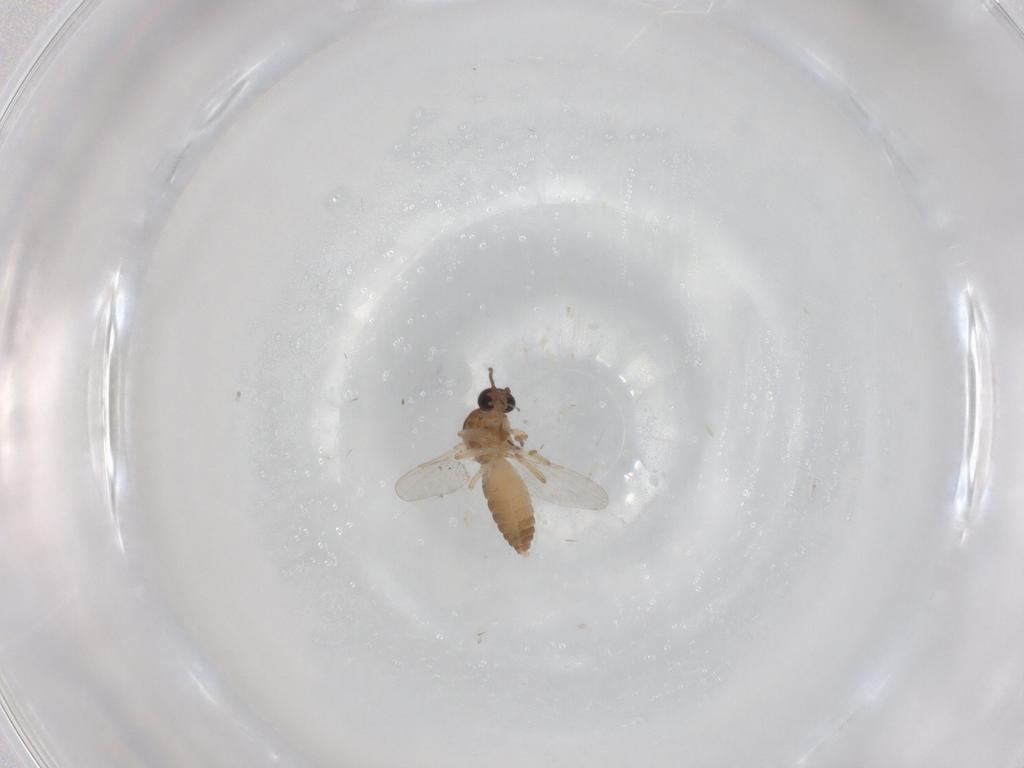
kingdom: Animalia
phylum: Arthropoda
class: Insecta
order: Diptera
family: Ceratopogonidae
